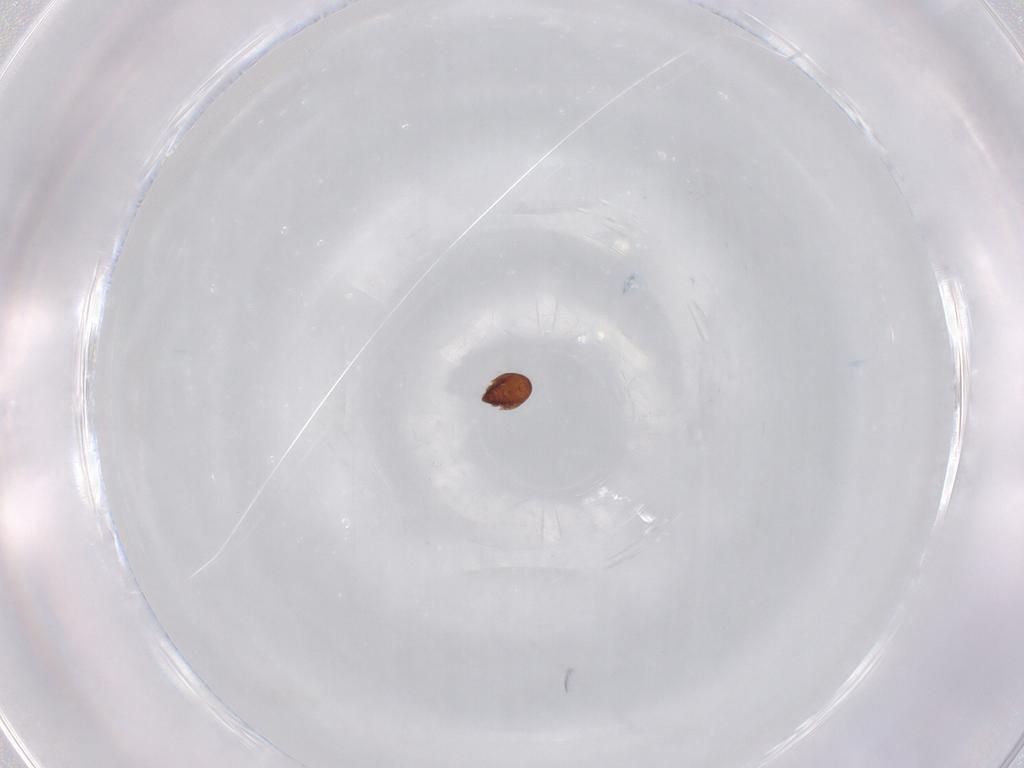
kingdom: Animalia
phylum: Arthropoda
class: Arachnida
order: Sarcoptiformes
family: Ceratozetidae
